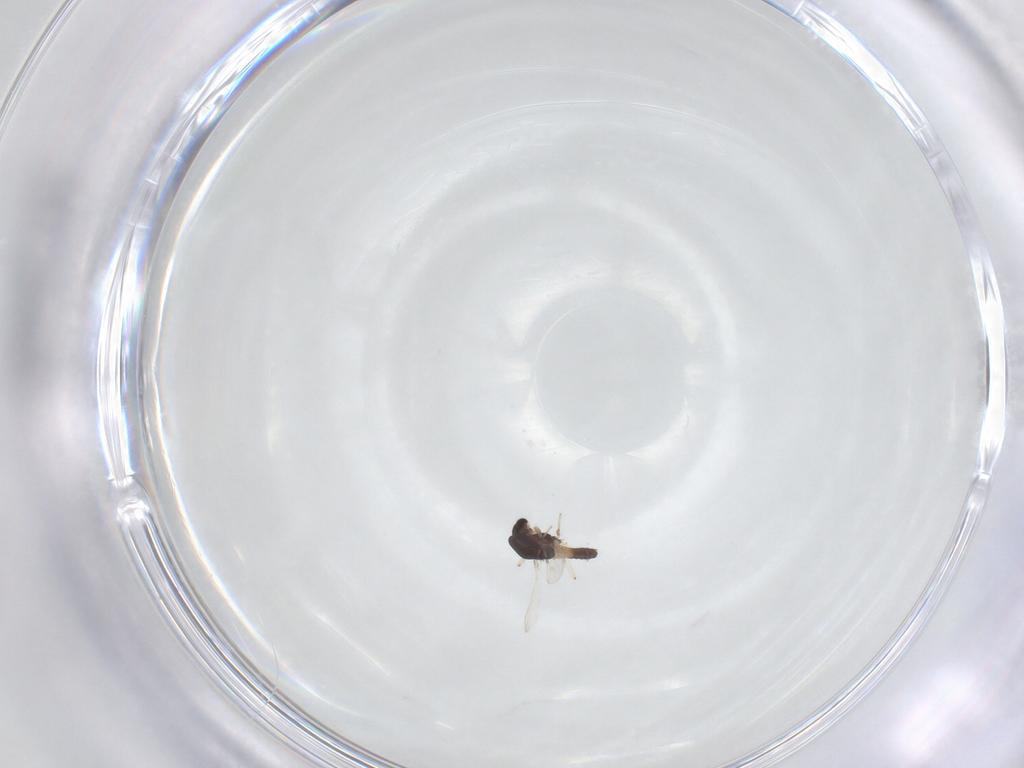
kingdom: Animalia
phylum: Arthropoda
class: Insecta
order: Diptera
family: Chironomidae
